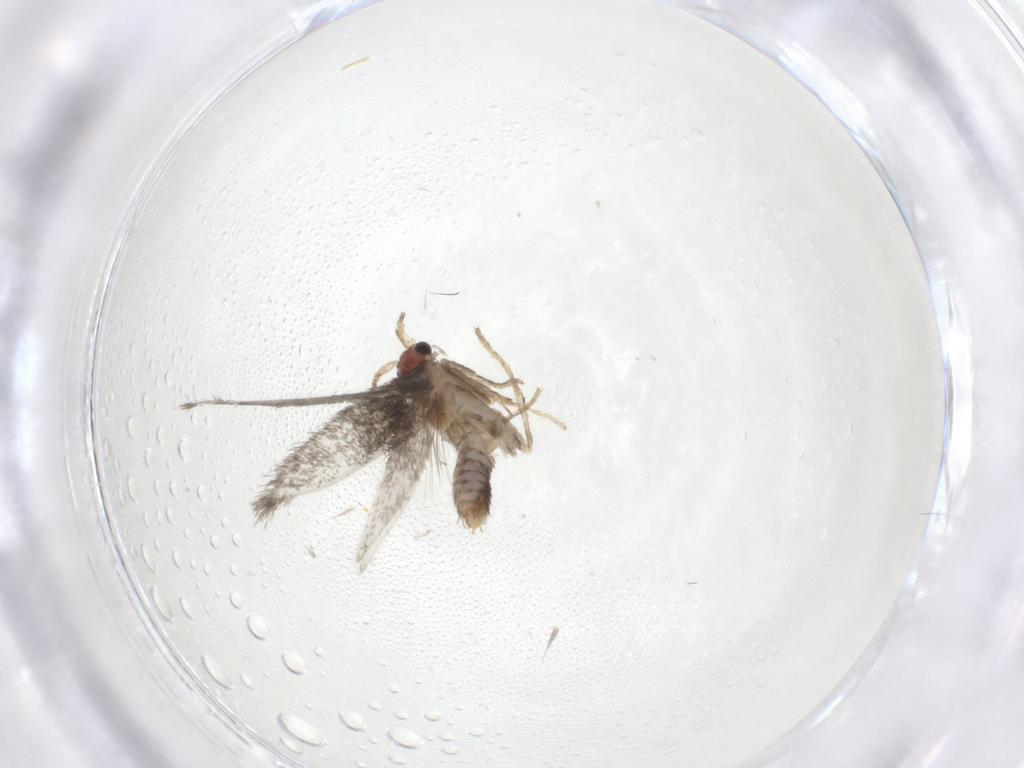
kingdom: Animalia
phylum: Arthropoda
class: Insecta
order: Lepidoptera
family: Nepticulidae
